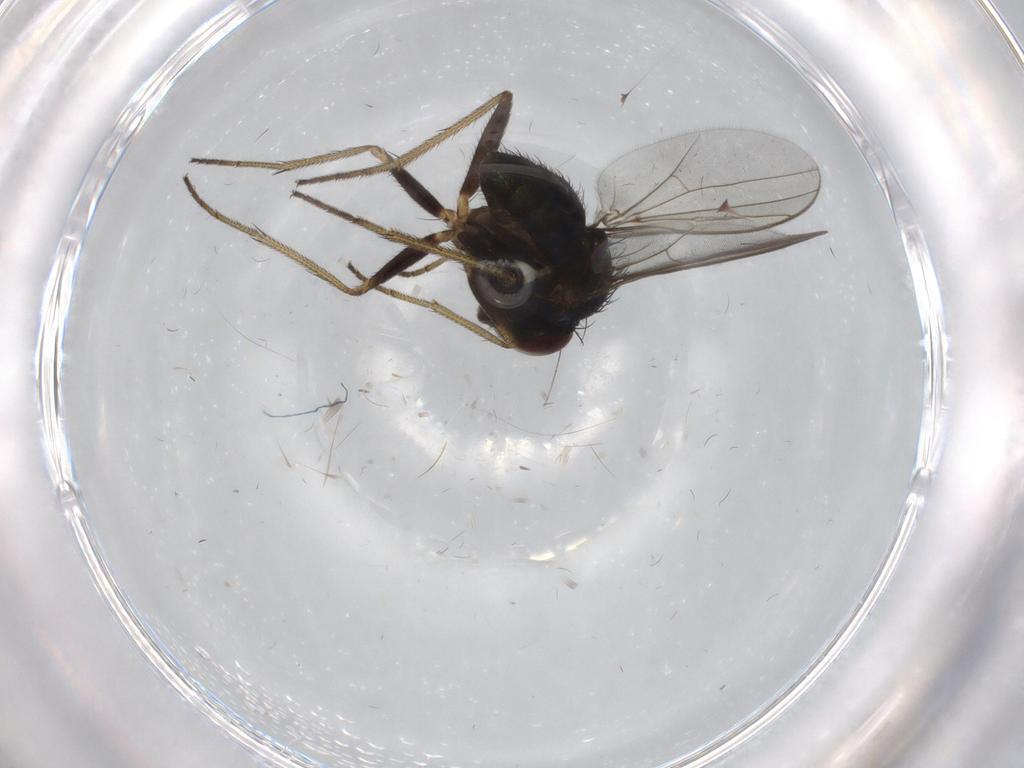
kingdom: Animalia
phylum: Arthropoda
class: Insecta
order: Diptera
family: Dolichopodidae
